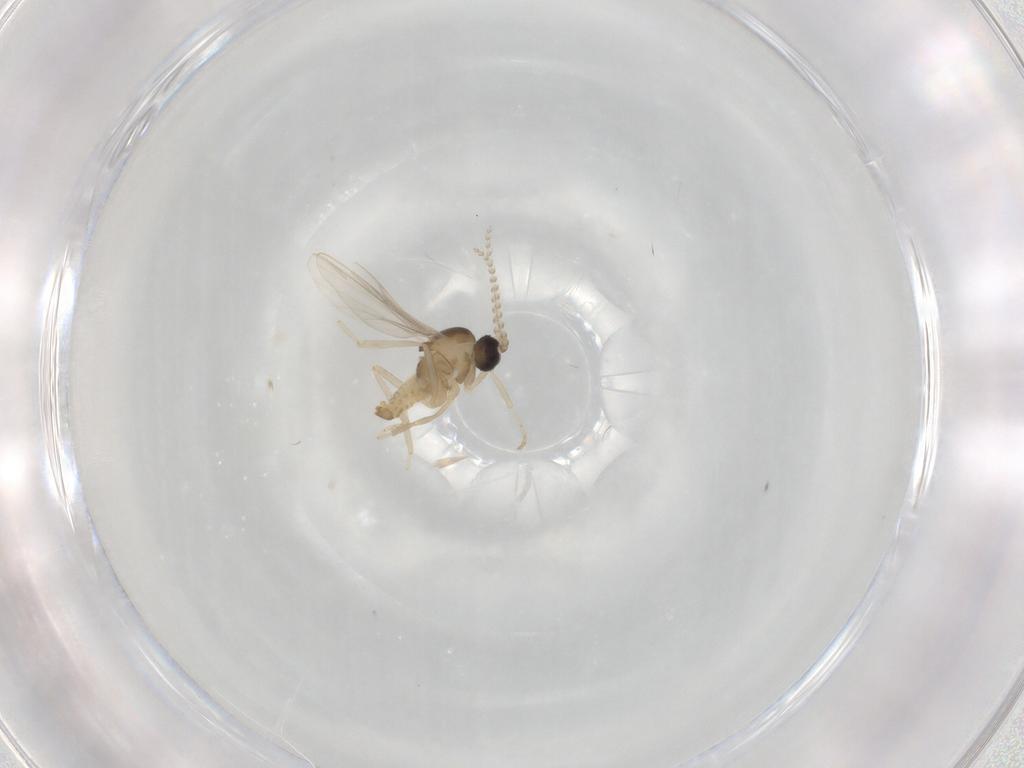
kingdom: Animalia
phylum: Arthropoda
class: Insecta
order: Diptera
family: Cecidomyiidae
